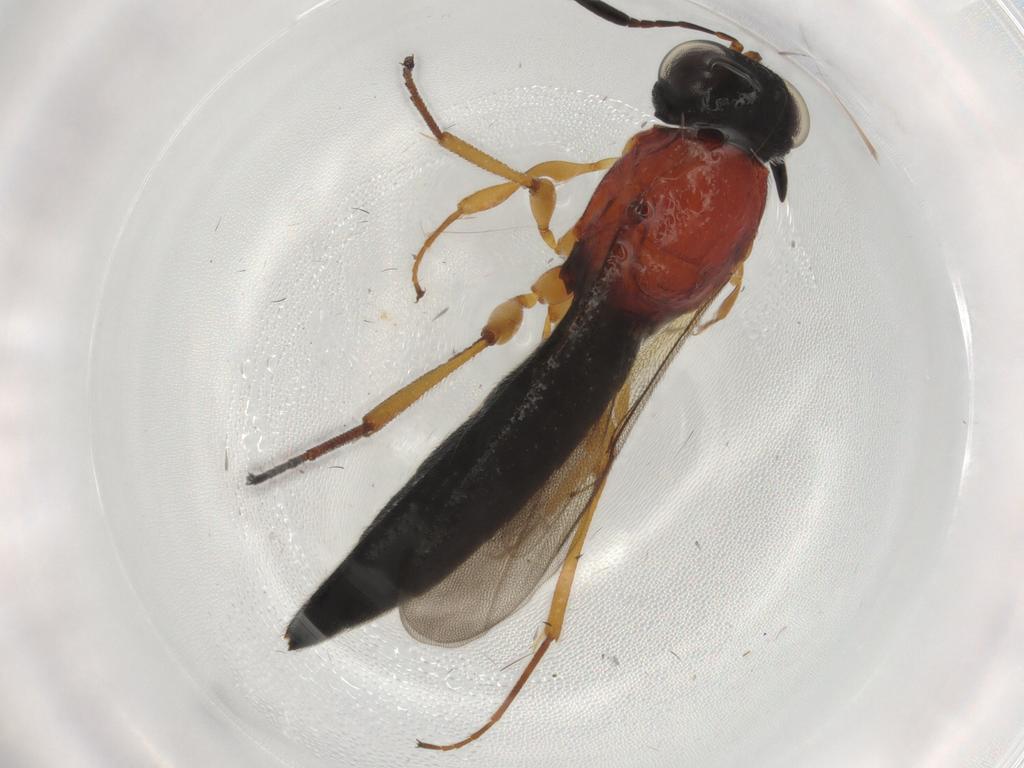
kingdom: Animalia
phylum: Arthropoda
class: Insecta
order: Hymenoptera
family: Scelionidae
